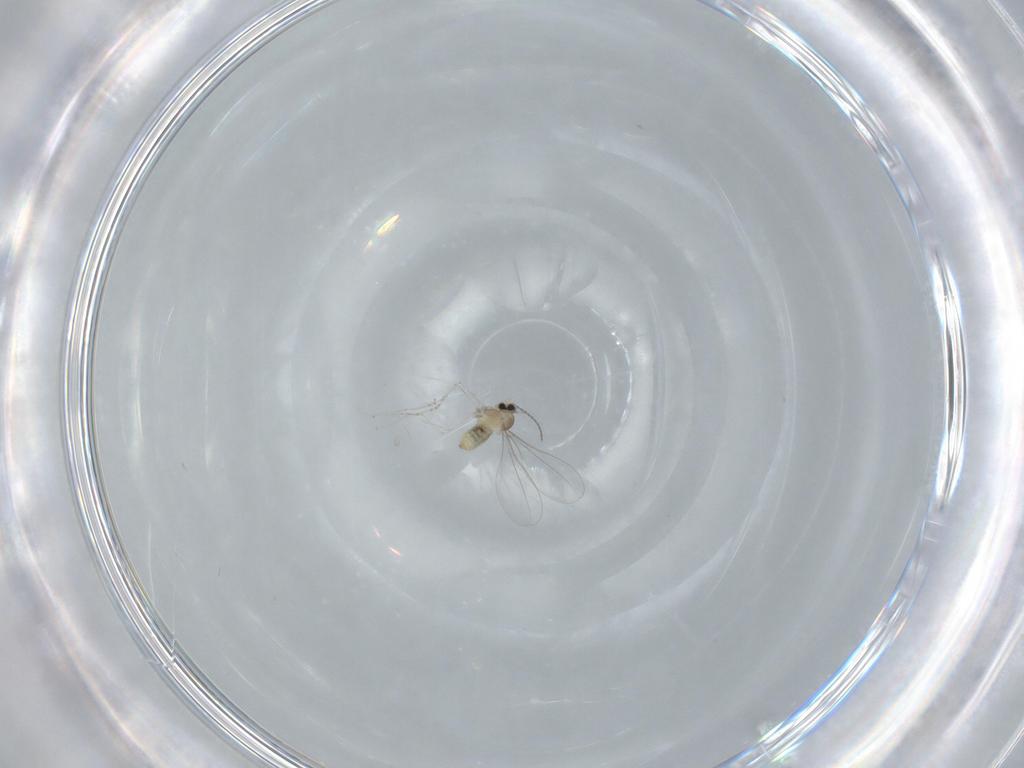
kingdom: Animalia
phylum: Arthropoda
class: Insecta
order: Diptera
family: Cecidomyiidae
